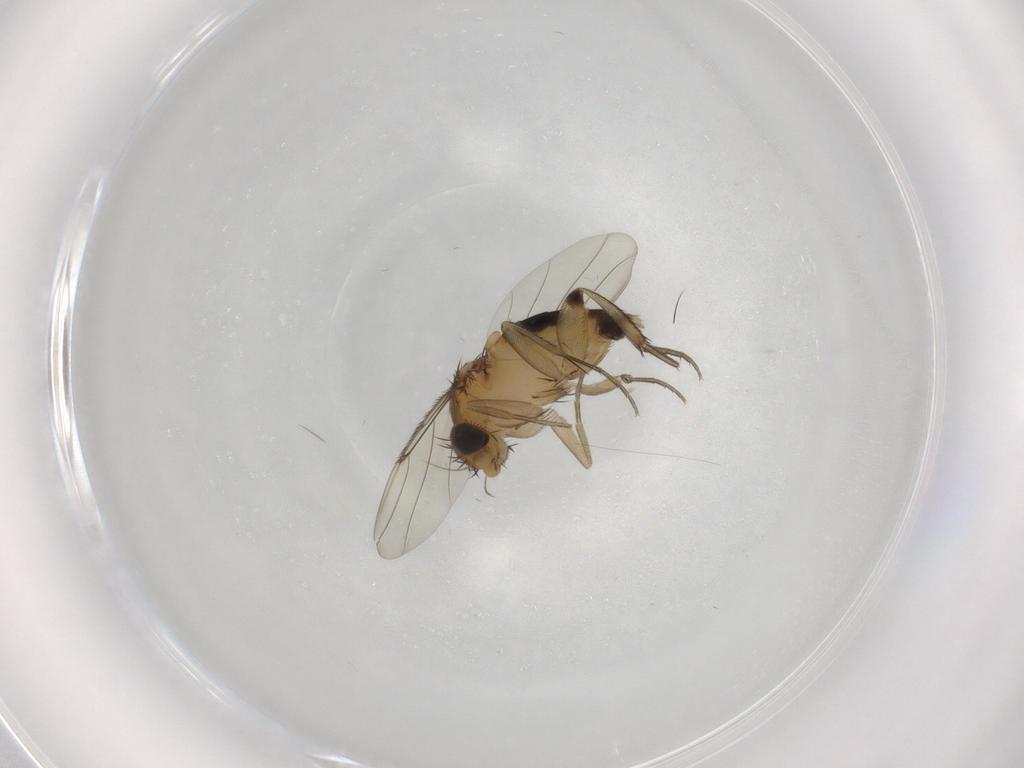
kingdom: Animalia
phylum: Arthropoda
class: Insecta
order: Diptera
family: Phoridae
